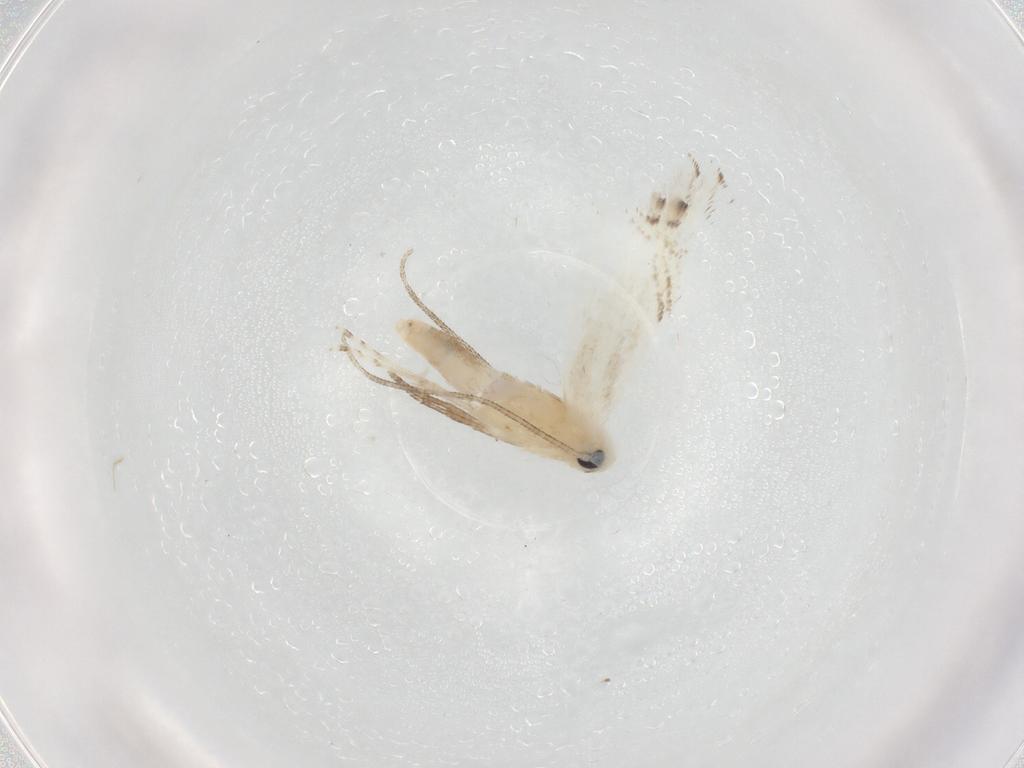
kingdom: Animalia
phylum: Arthropoda
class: Insecta
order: Lepidoptera
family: Lyonetiidae
